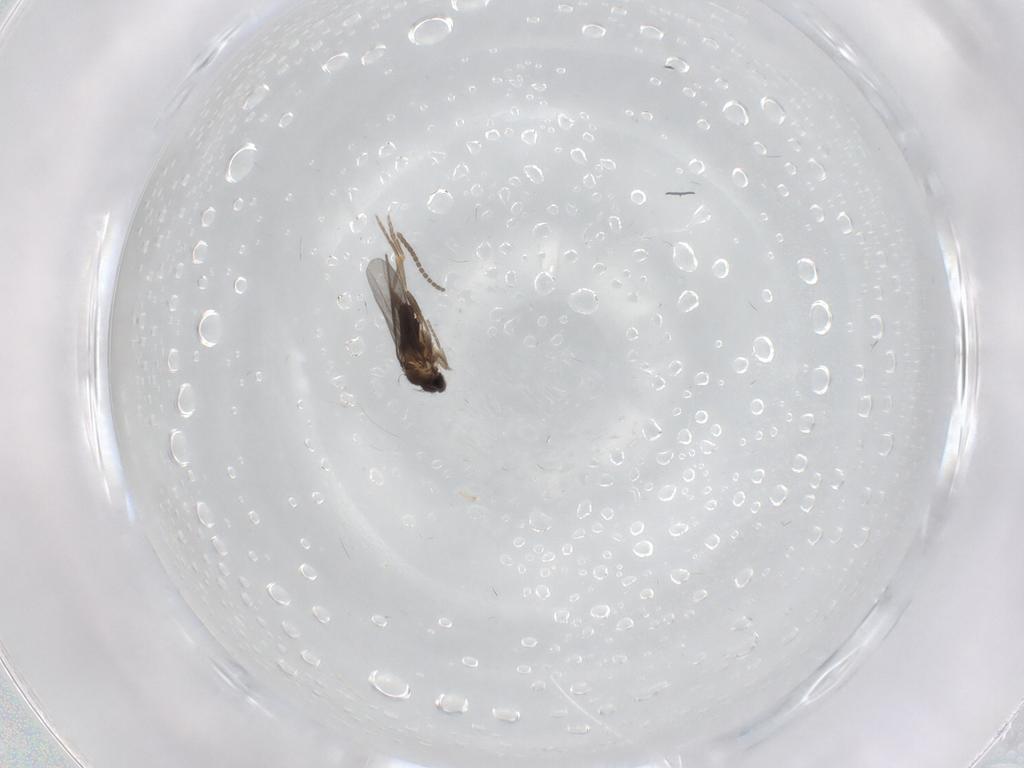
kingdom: Animalia
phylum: Arthropoda
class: Insecta
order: Diptera
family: Sciaridae
